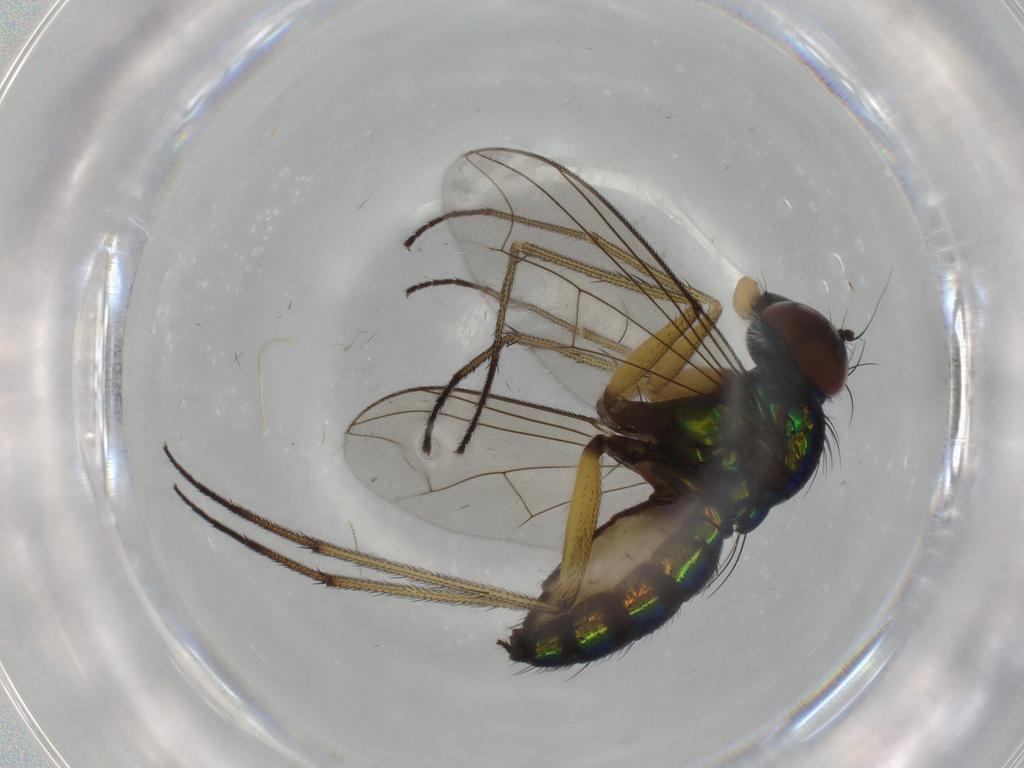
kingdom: Animalia
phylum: Arthropoda
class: Insecta
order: Diptera
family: Dolichopodidae
